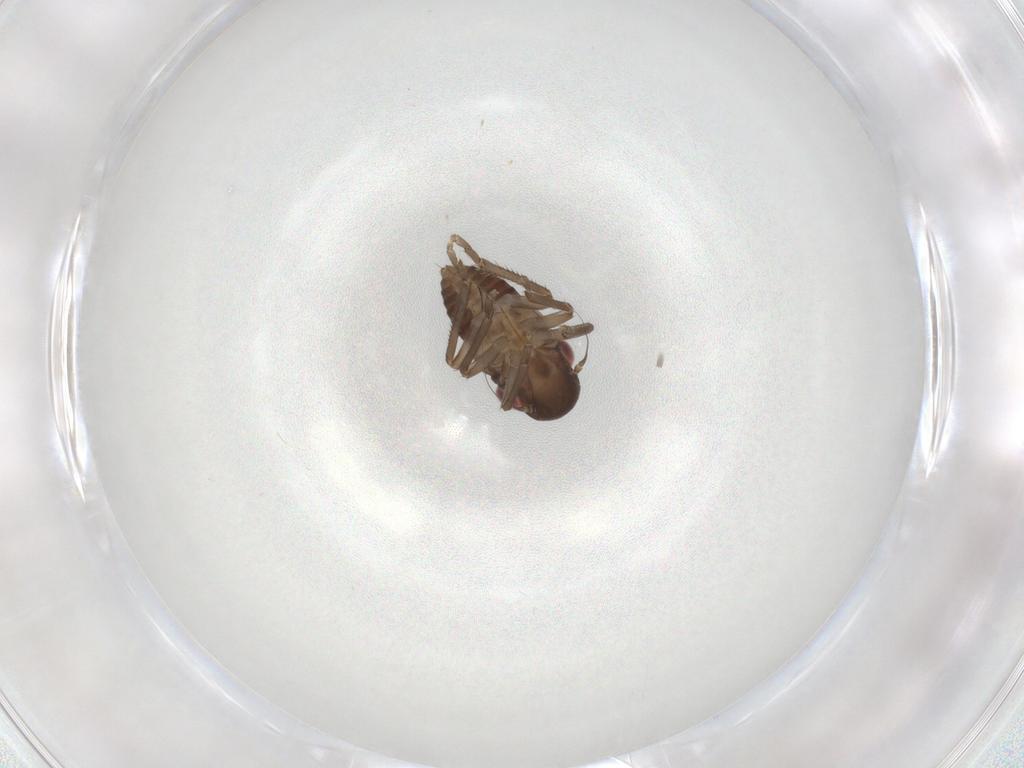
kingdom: Animalia
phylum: Arthropoda
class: Insecta
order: Hemiptera
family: Cicadellidae
